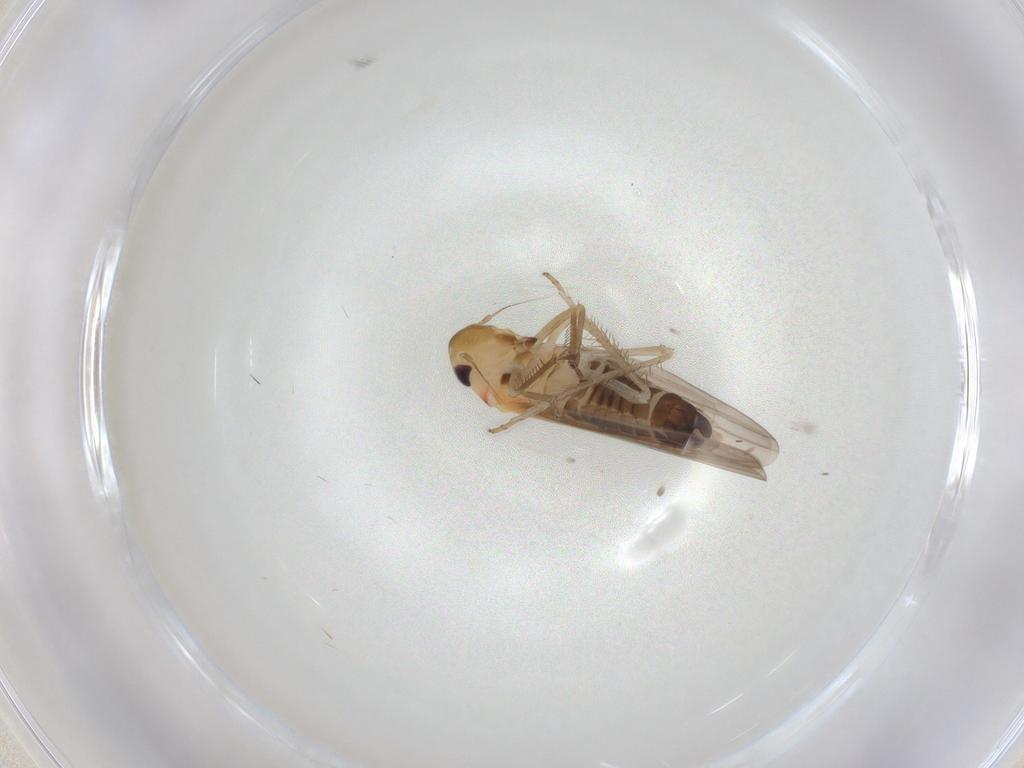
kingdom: Animalia
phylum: Arthropoda
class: Insecta
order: Hemiptera
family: Cicadellidae
